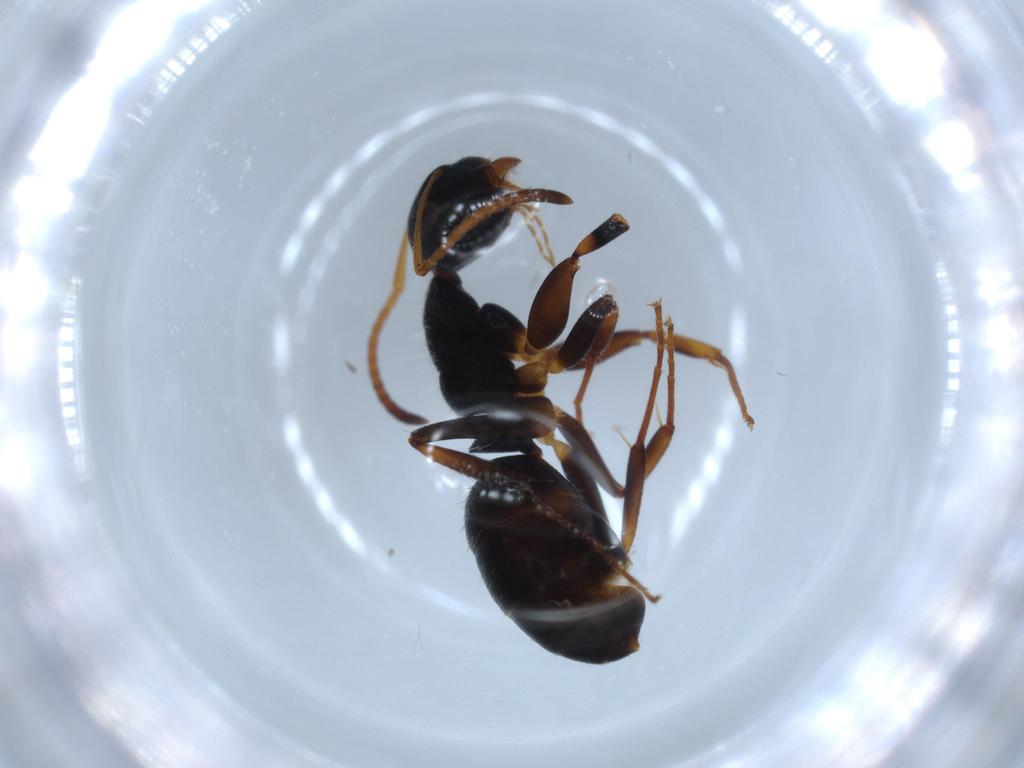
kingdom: Animalia
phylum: Arthropoda
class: Insecta
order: Hymenoptera
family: Formicidae
